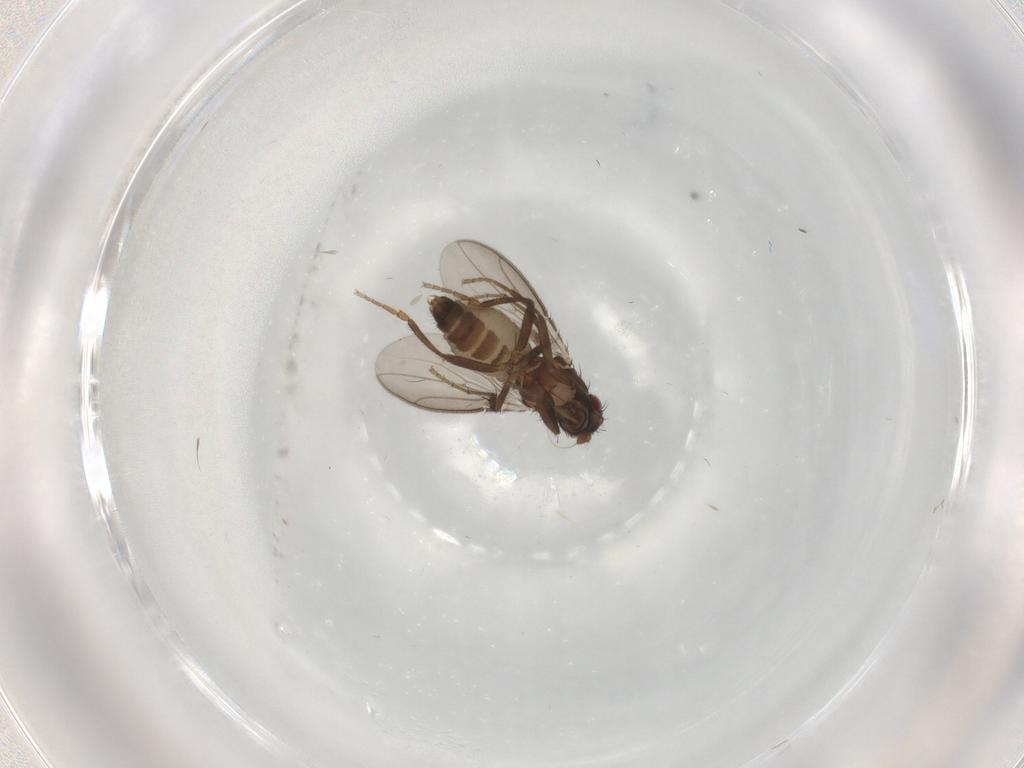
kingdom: Animalia
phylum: Arthropoda
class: Insecta
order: Diptera
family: Sphaeroceridae
